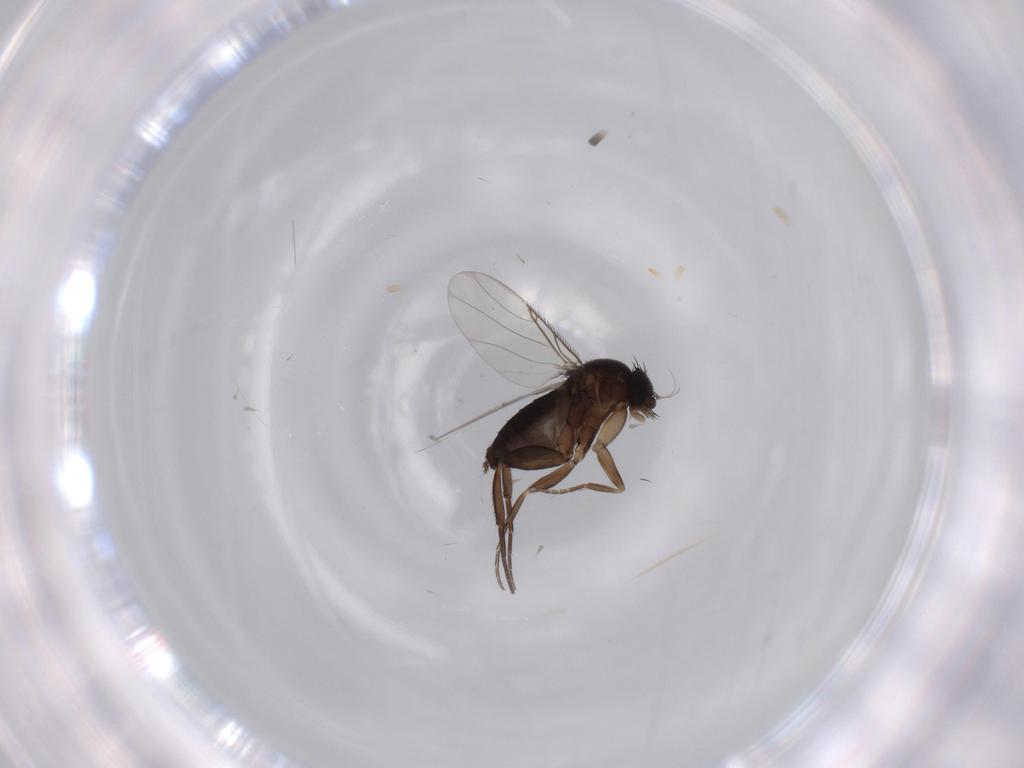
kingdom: Animalia
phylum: Arthropoda
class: Insecta
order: Diptera
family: Phoridae
